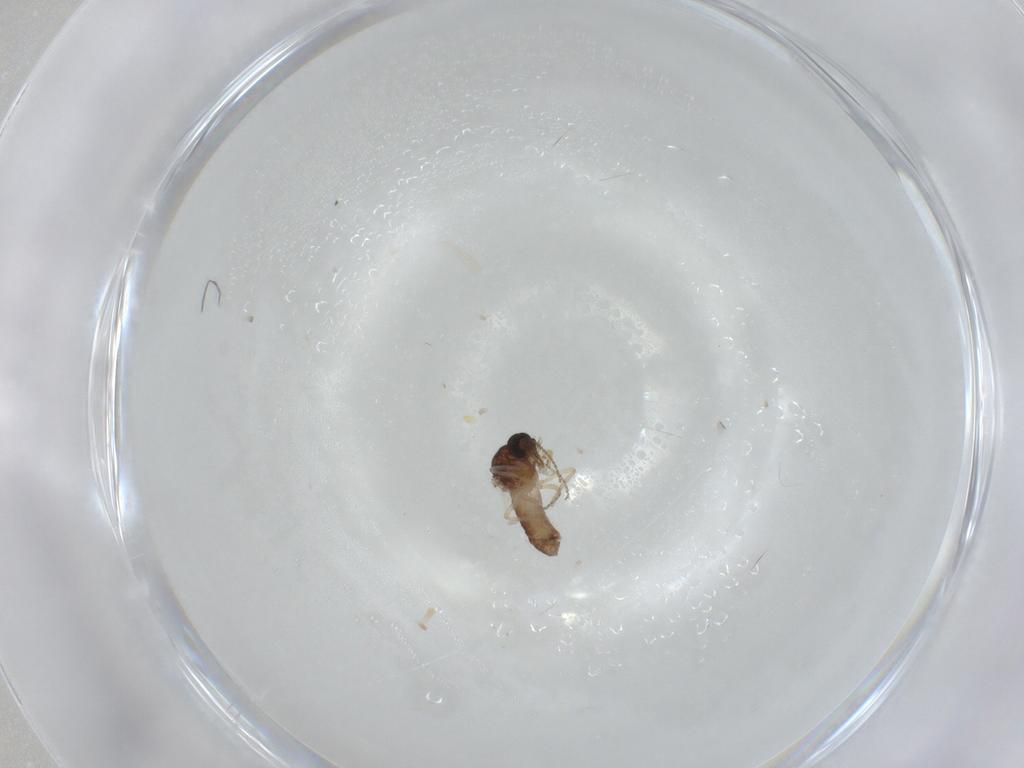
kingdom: Animalia
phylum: Arthropoda
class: Insecta
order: Diptera
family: Ceratopogonidae
